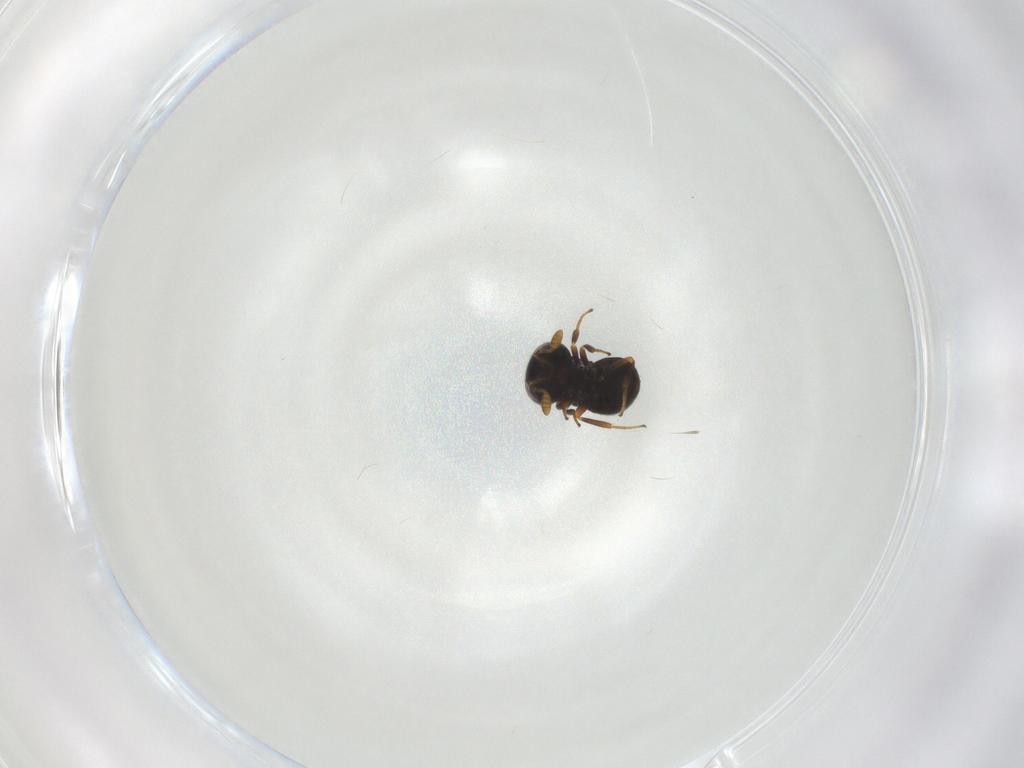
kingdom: Animalia
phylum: Arthropoda
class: Insecta
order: Hymenoptera
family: Scelionidae
